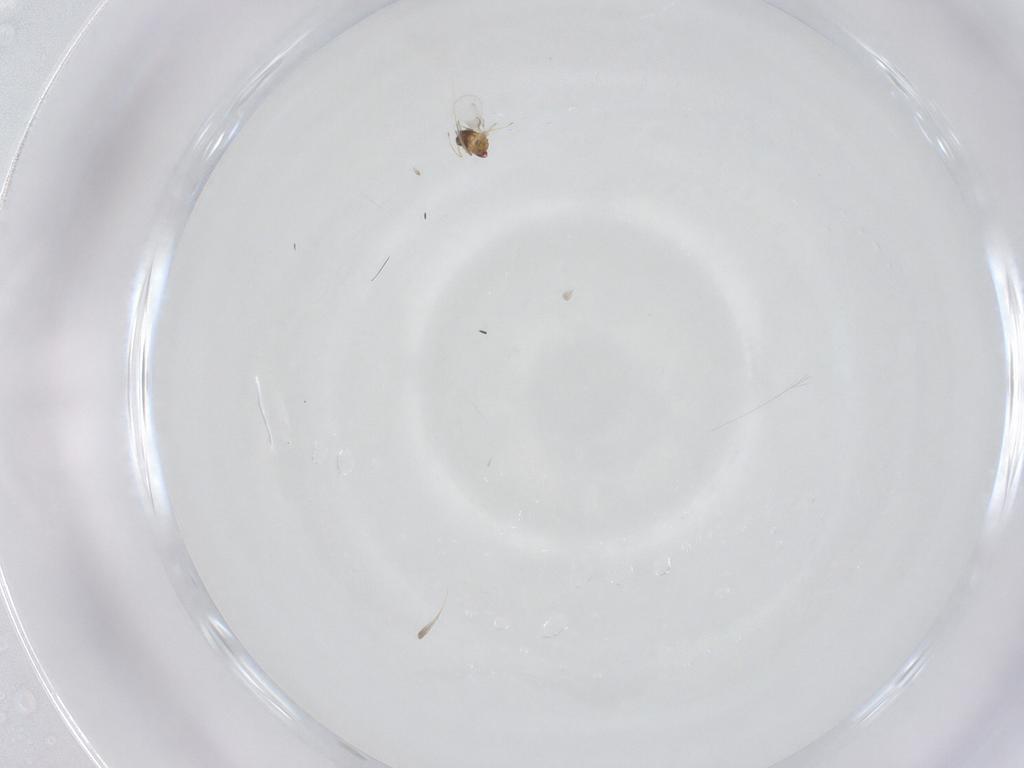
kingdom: Animalia
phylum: Arthropoda
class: Insecta
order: Hymenoptera
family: Trichogrammatidae
